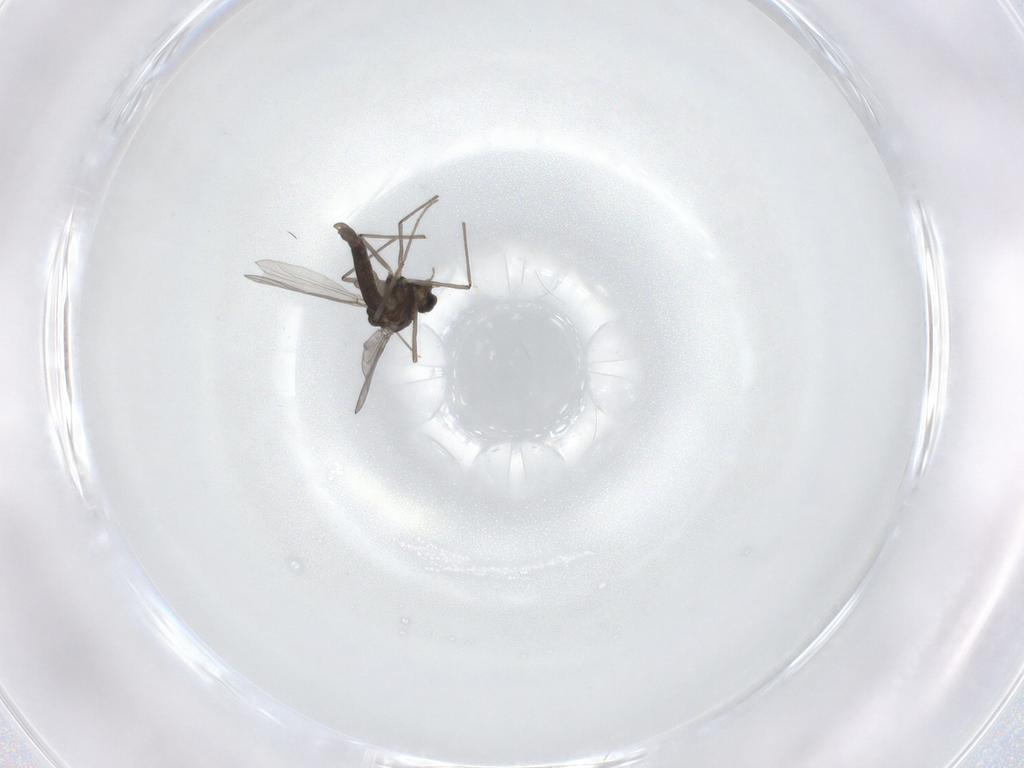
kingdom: Animalia
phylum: Arthropoda
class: Insecta
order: Diptera
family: Chironomidae
